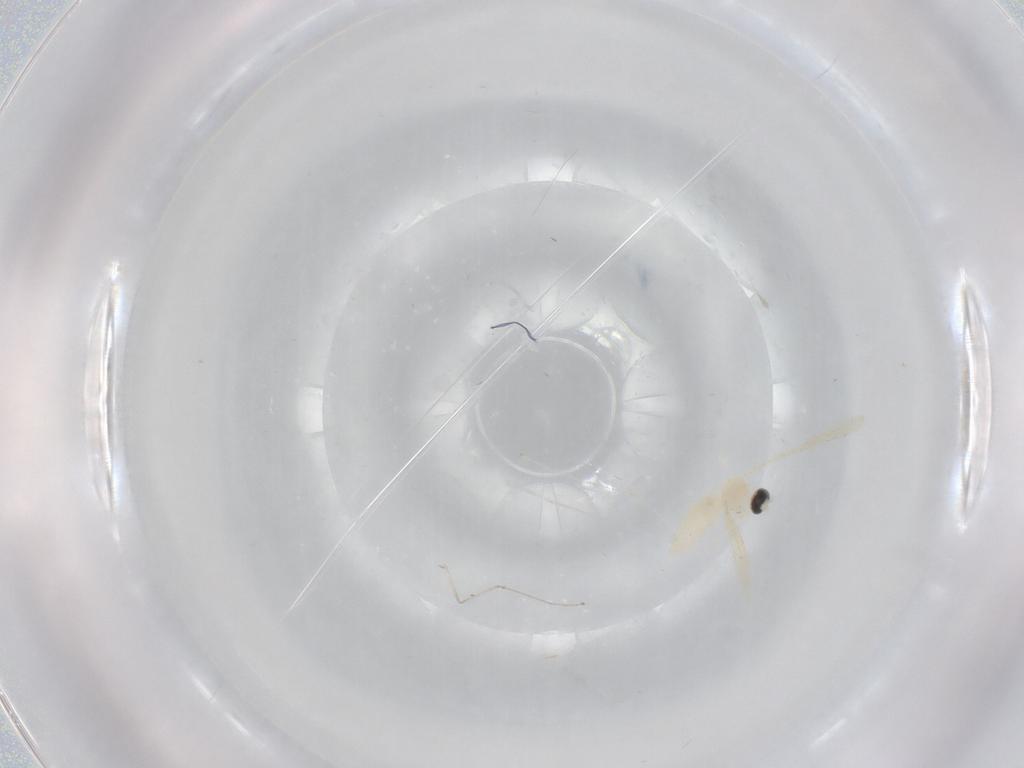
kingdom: Animalia
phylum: Arthropoda
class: Insecta
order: Diptera
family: Cecidomyiidae
